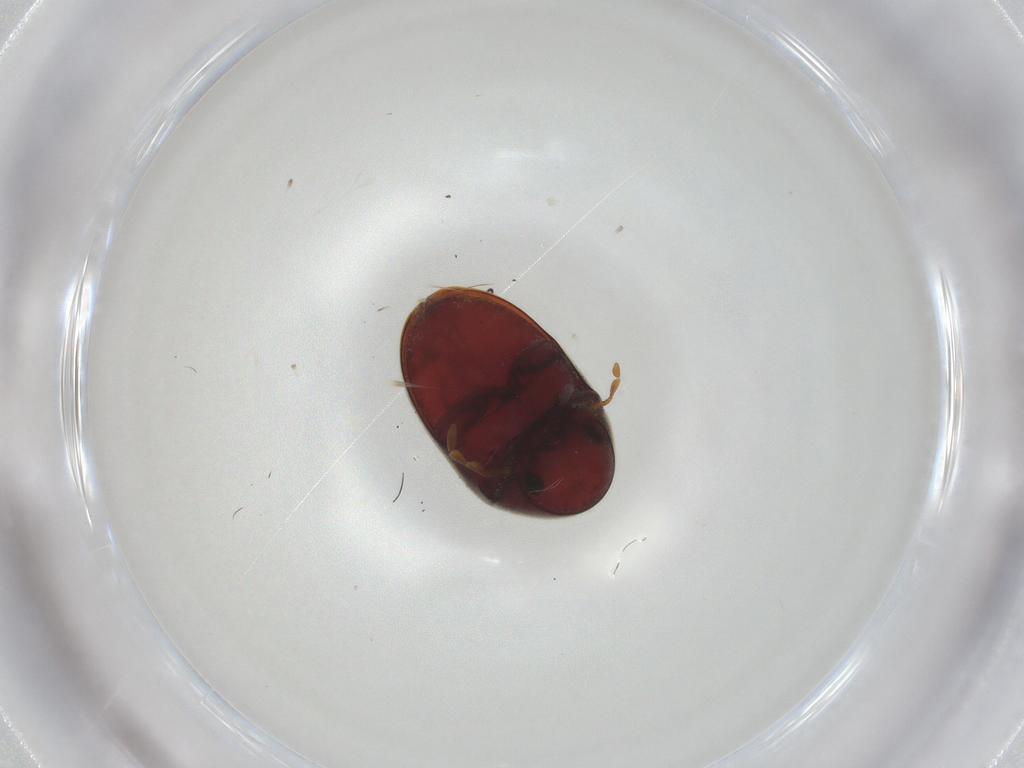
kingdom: Animalia
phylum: Arthropoda
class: Insecta
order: Coleoptera
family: Ptinidae
